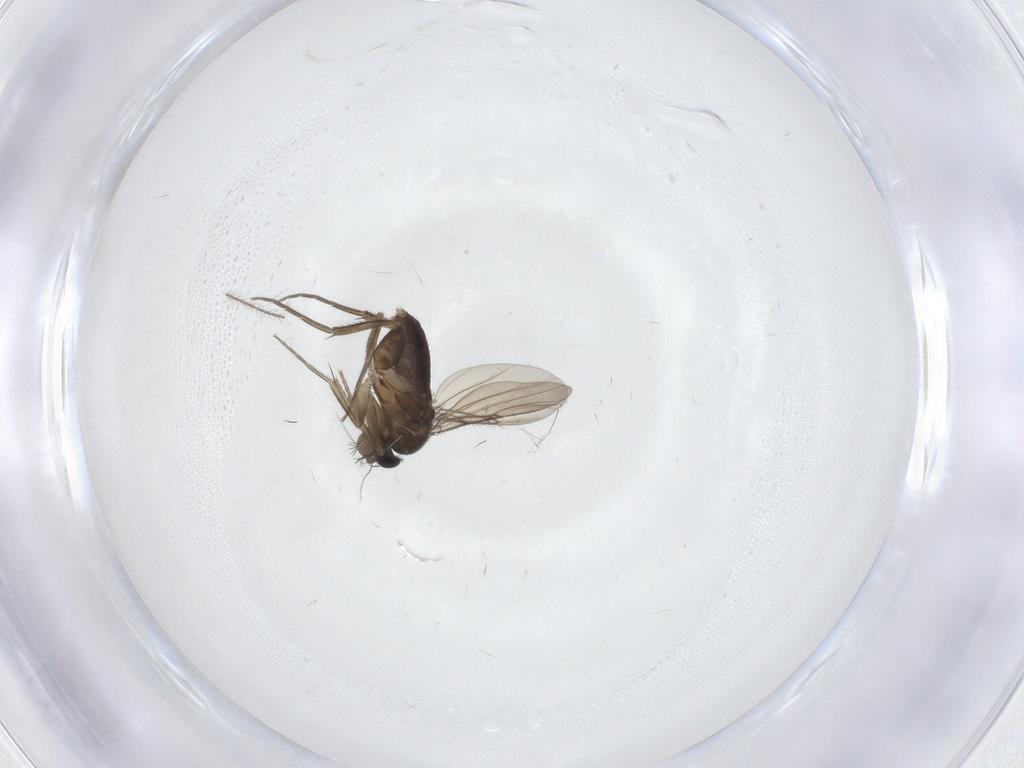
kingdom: Animalia
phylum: Arthropoda
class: Insecta
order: Diptera
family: Phoridae
